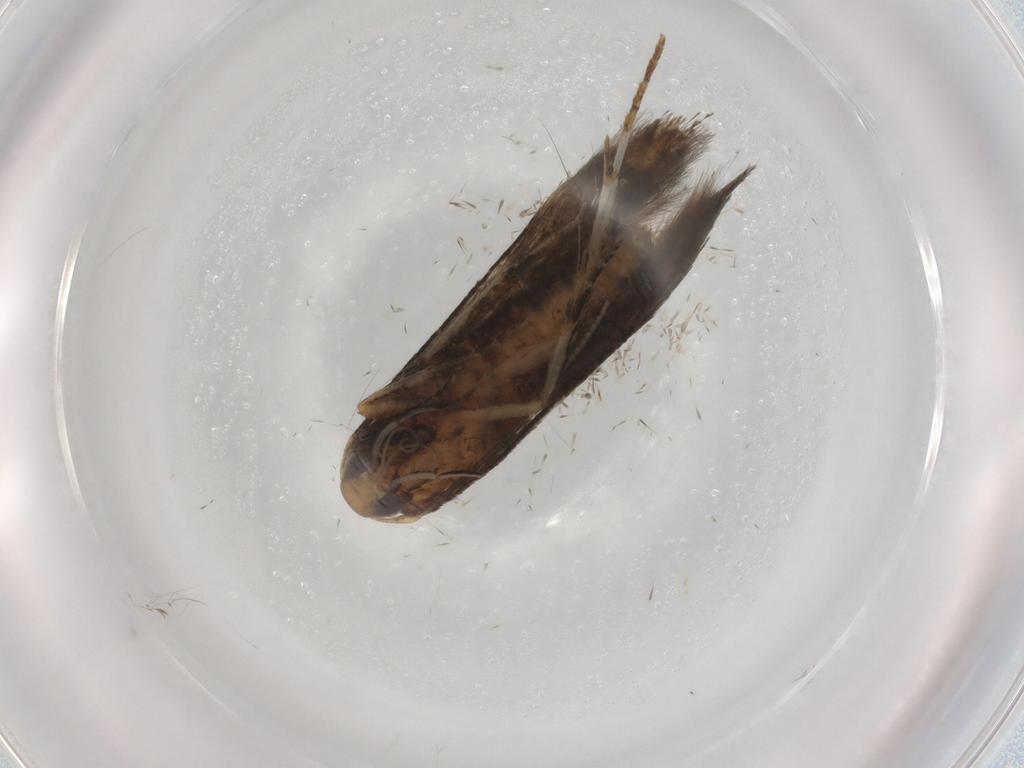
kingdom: Animalia
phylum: Arthropoda
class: Insecta
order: Lepidoptera
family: Cosmopterigidae
